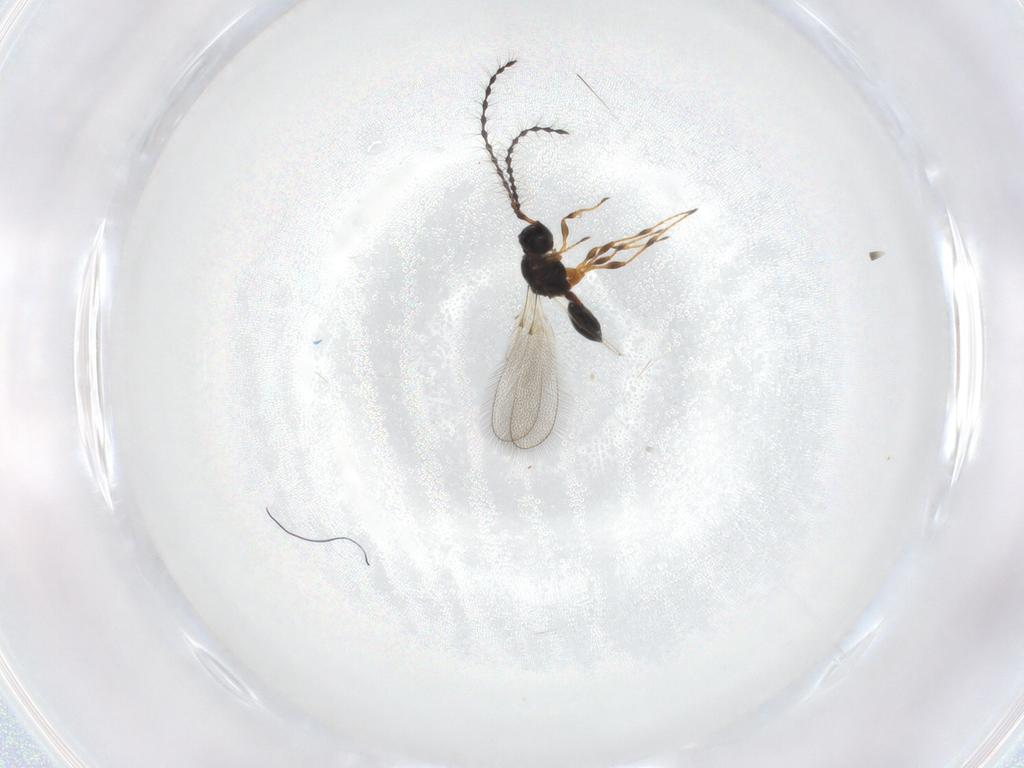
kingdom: Animalia
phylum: Arthropoda
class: Insecta
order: Hymenoptera
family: Diapriidae
